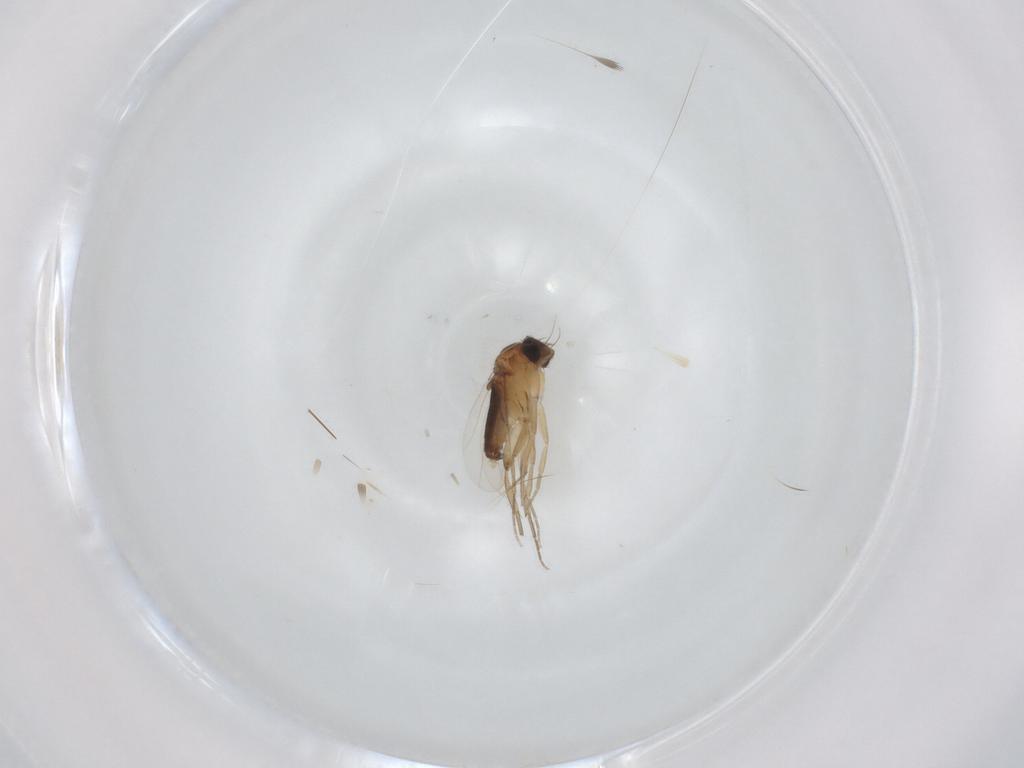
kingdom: Animalia
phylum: Arthropoda
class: Insecta
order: Diptera
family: Phoridae
